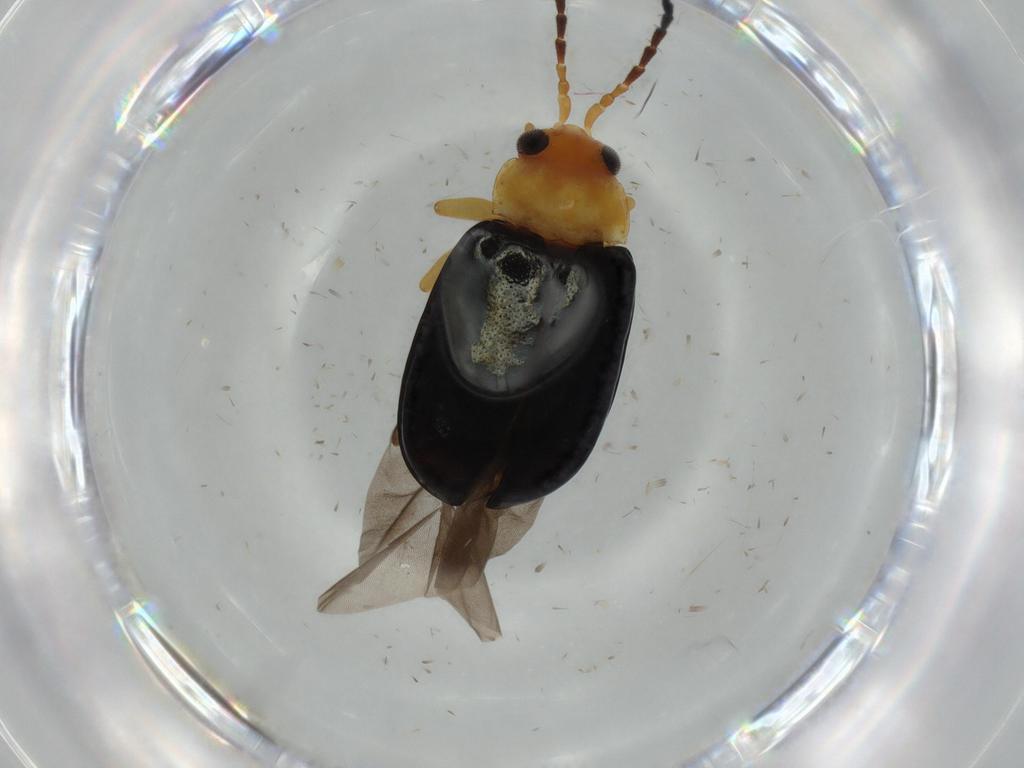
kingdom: Animalia
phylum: Arthropoda
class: Insecta
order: Coleoptera
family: Chrysomelidae
